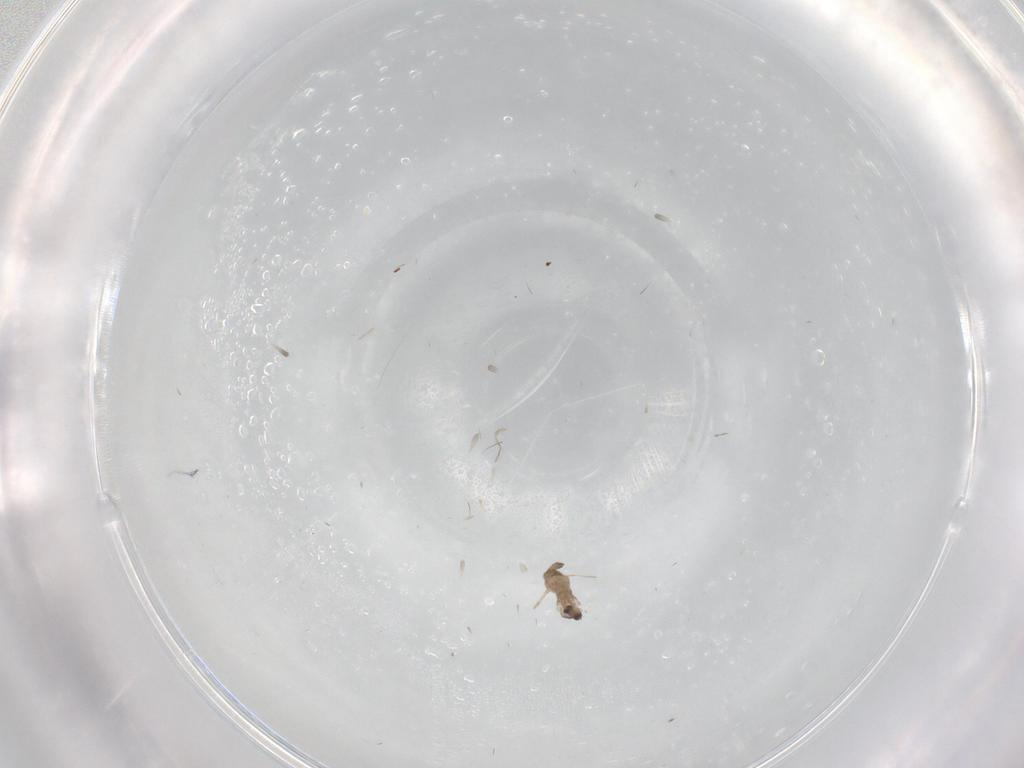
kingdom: Animalia
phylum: Arthropoda
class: Insecta
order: Diptera
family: Cecidomyiidae
